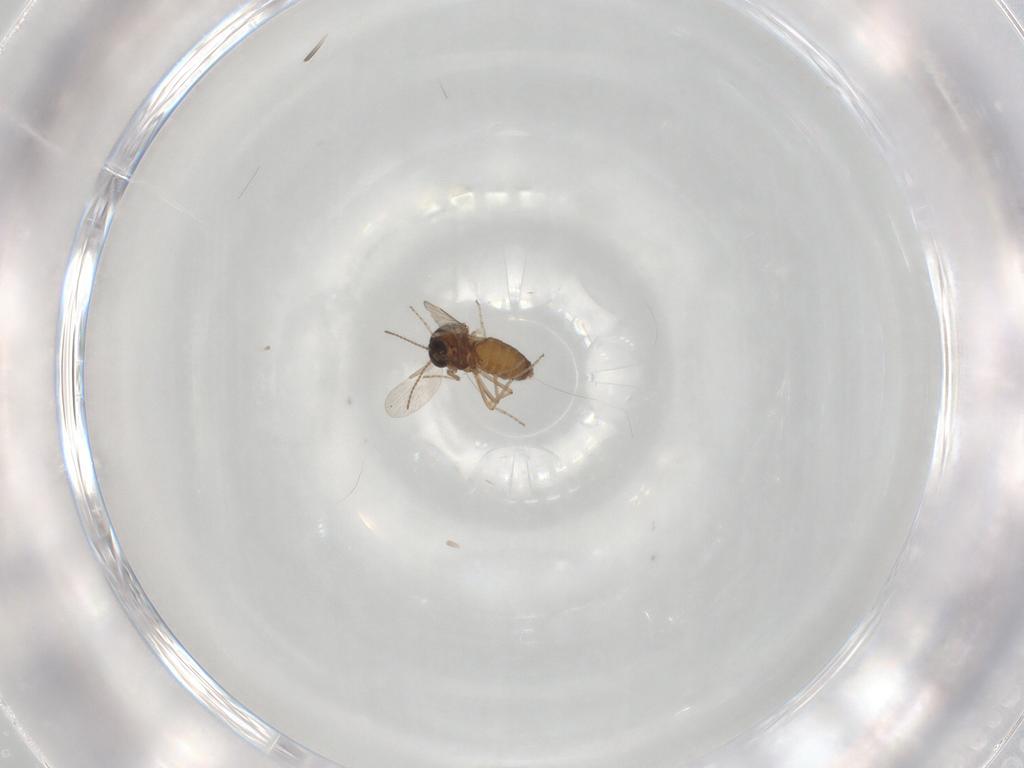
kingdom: Animalia
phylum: Arthropoda
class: Insecta
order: Diptera
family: Ceratopogonidae
